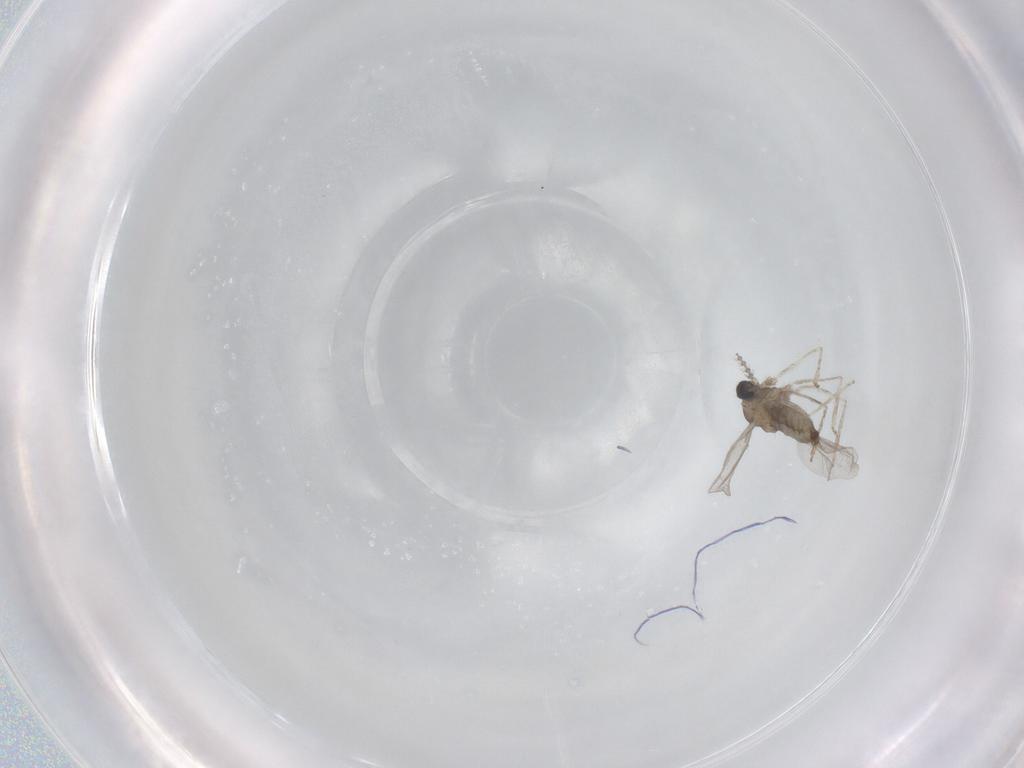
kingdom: Animalia
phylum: Arthropoda
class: Insecta
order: Diptera
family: Cecidomyiidae
